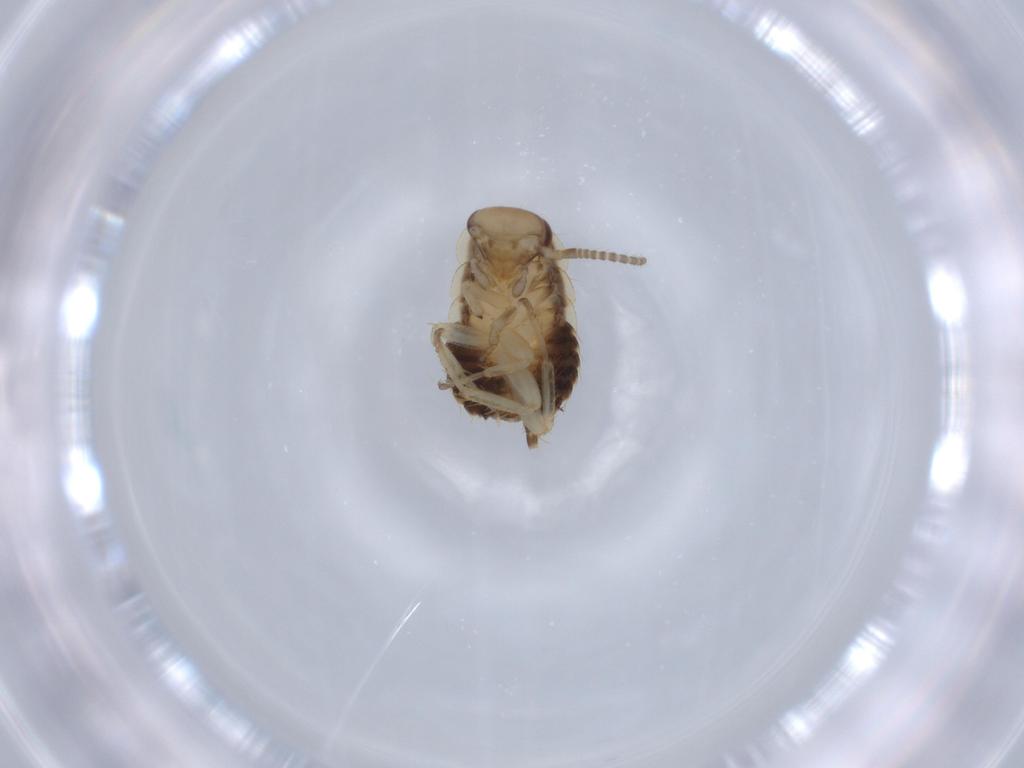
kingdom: Animalia
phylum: Arthropoda
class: Insecta
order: Blattodea
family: Ectobiidae
